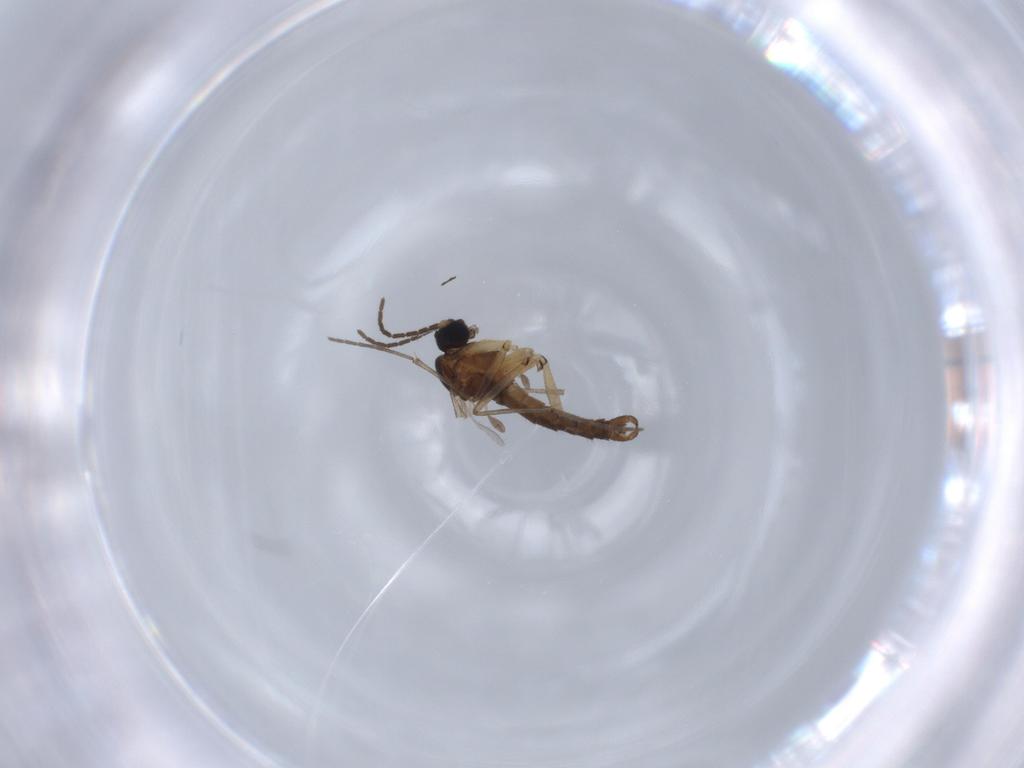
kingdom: Animalia
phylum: Arthropoda
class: Insecta
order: Diptera
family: Sciaridae
